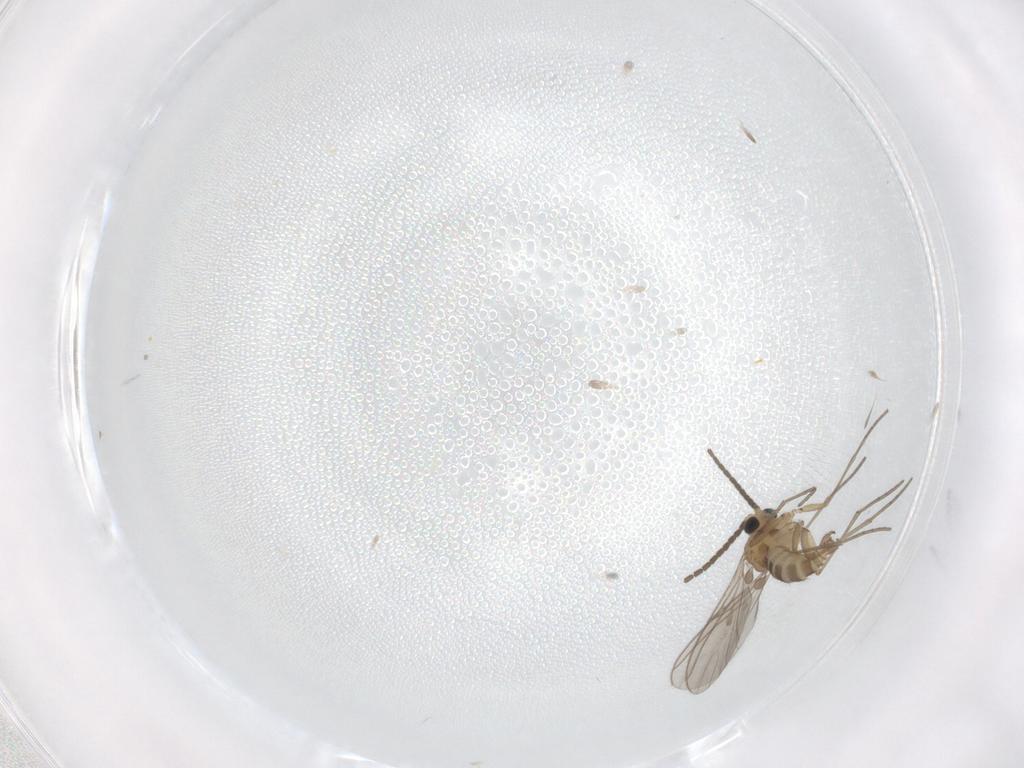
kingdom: Animalia
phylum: Arthropoda
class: Insecta
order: Diptera
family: Sciaridae
